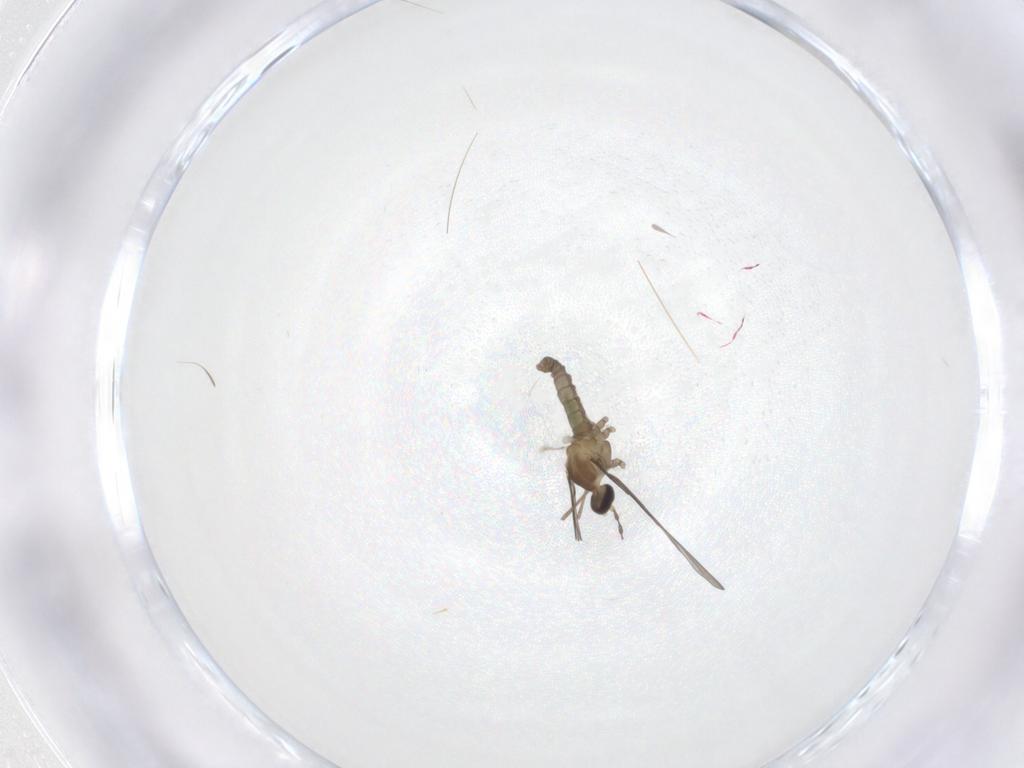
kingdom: Animalia
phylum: Arthropoda
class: Insecta
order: Diptera
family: Cecidomyiidae
